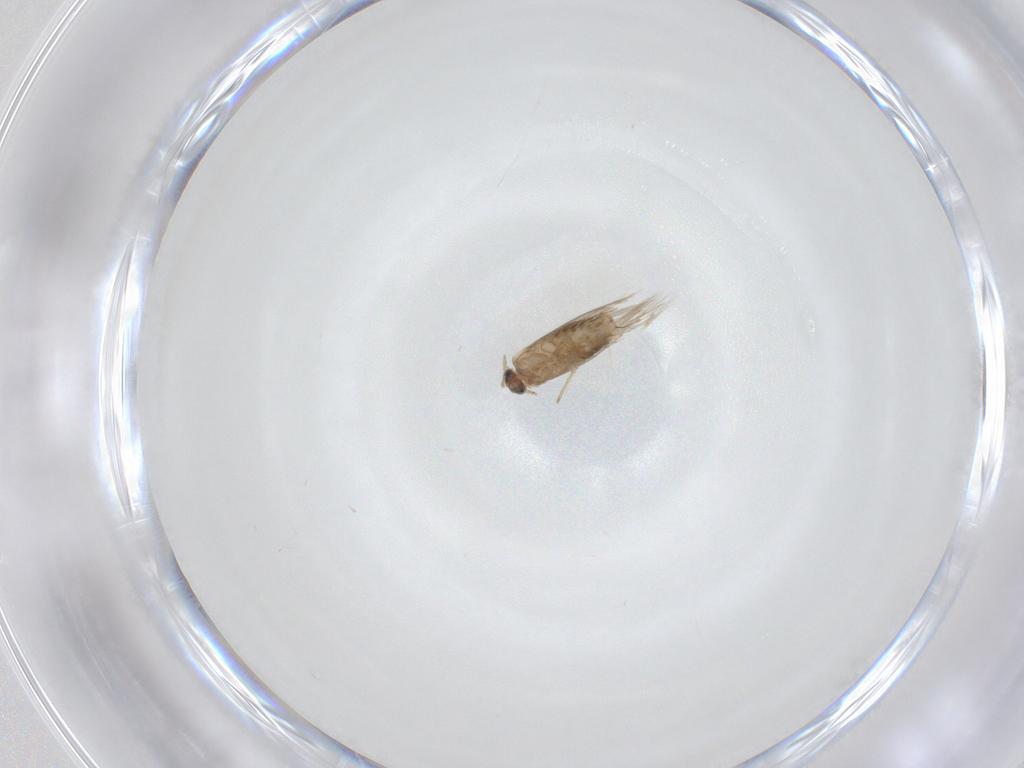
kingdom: Animalia
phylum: Arthropoda
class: Insecta
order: Lepidoptera
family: Nepticulidae
